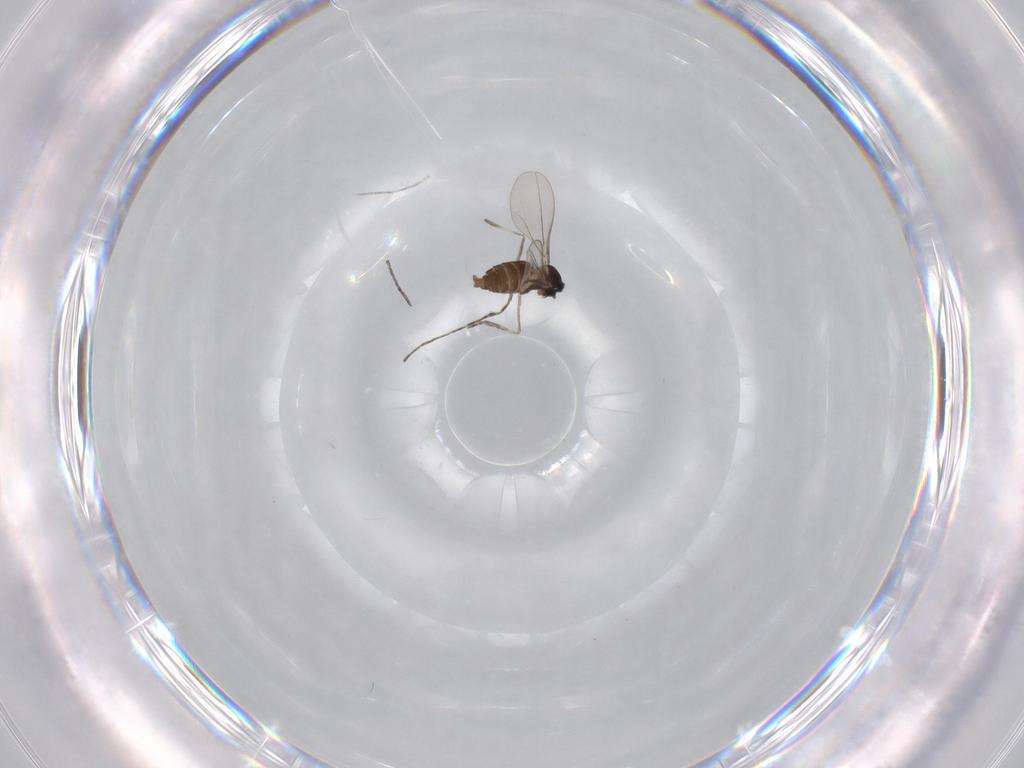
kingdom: Animalia
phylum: Arthropoda
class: Insecta
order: Diptera
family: Cecidomyiidae
